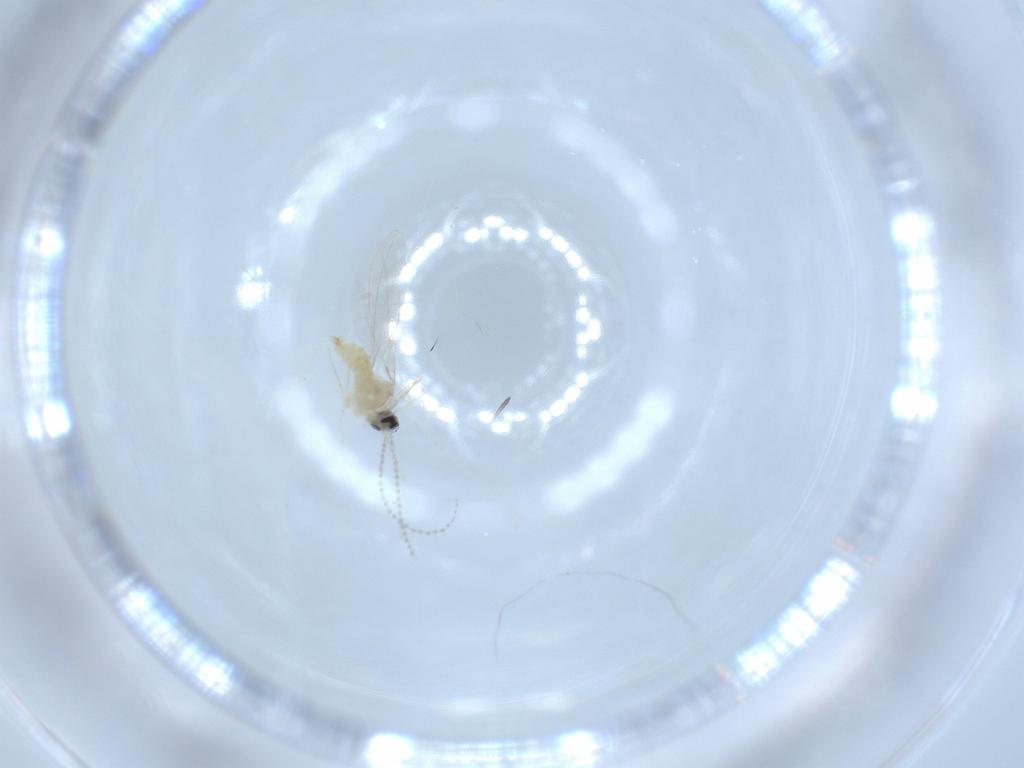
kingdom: Animalia
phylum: Arthropoda
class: Insecta
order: Diptera
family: Cecidomyiidae
